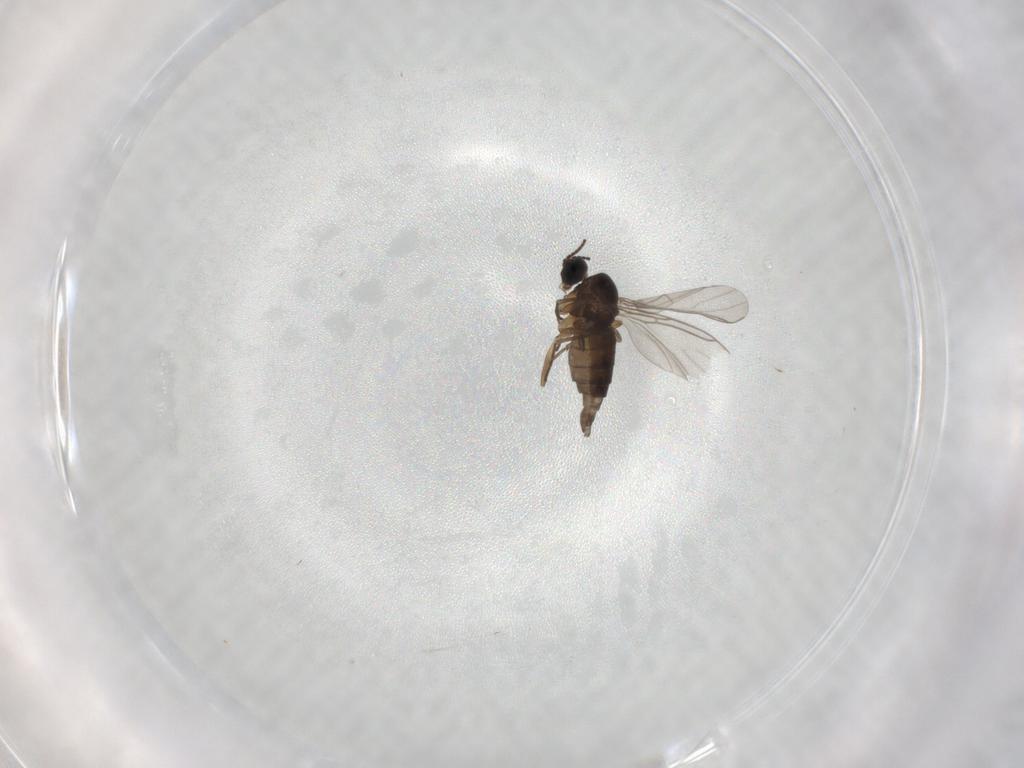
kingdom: Animalia
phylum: Arthropoda
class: Insecta
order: Diptera
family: Sciaridae
